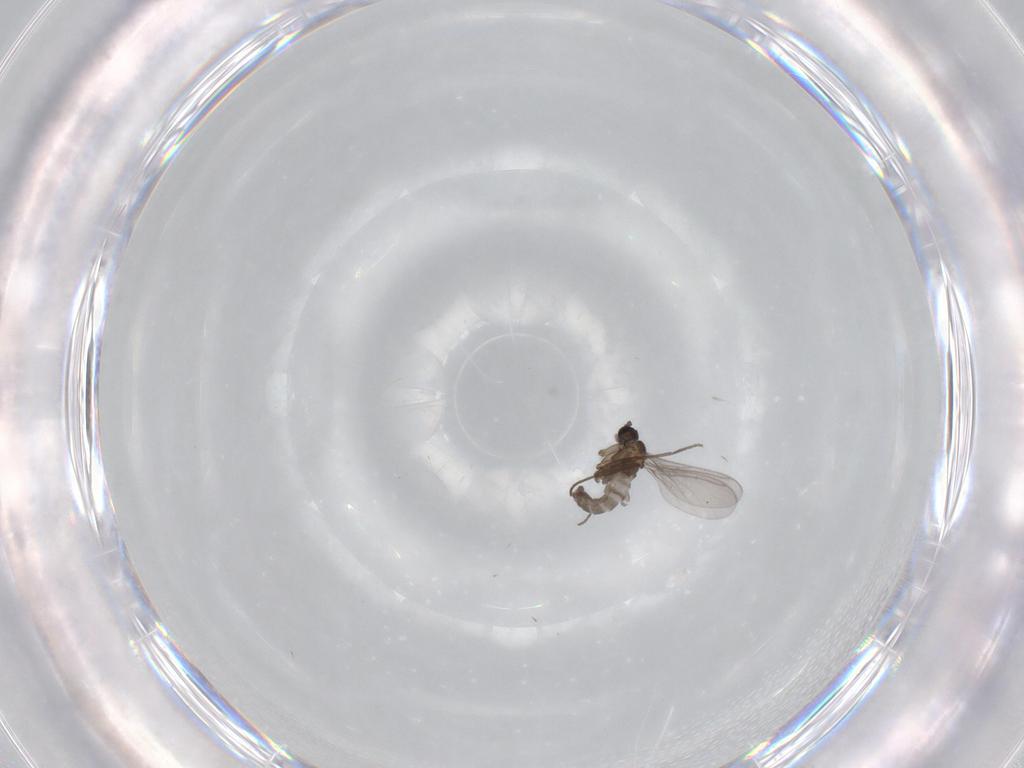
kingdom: Animalia
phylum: Arthropoda
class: Insecta
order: Diptera
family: Sciaridae
